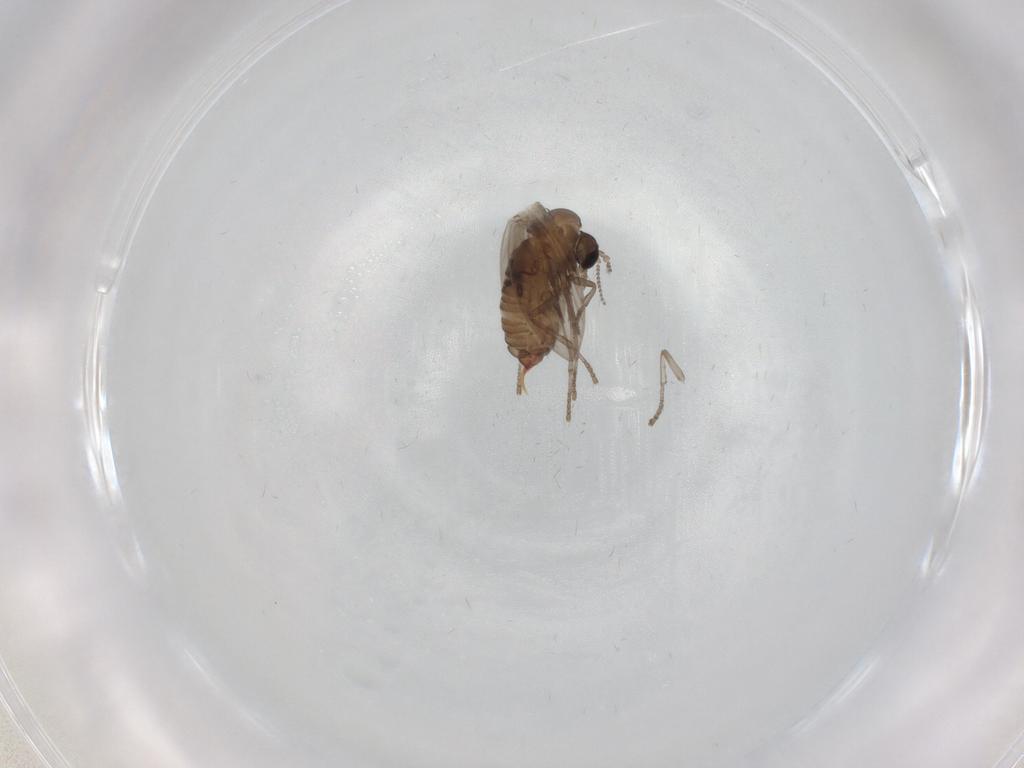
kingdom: Animalia
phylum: Arthropoda
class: Insecta
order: Diptera
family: Psychodidae
